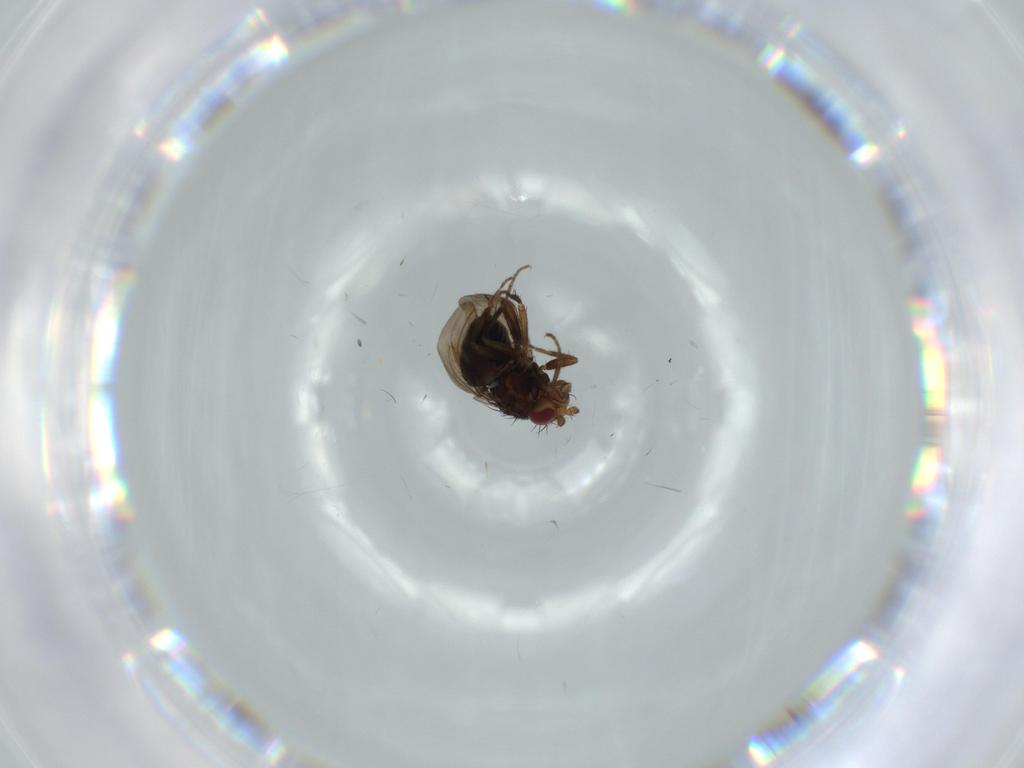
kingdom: Animalia
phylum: Arthropoda
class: Insecta
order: Diptera
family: Sphaeroceridae
